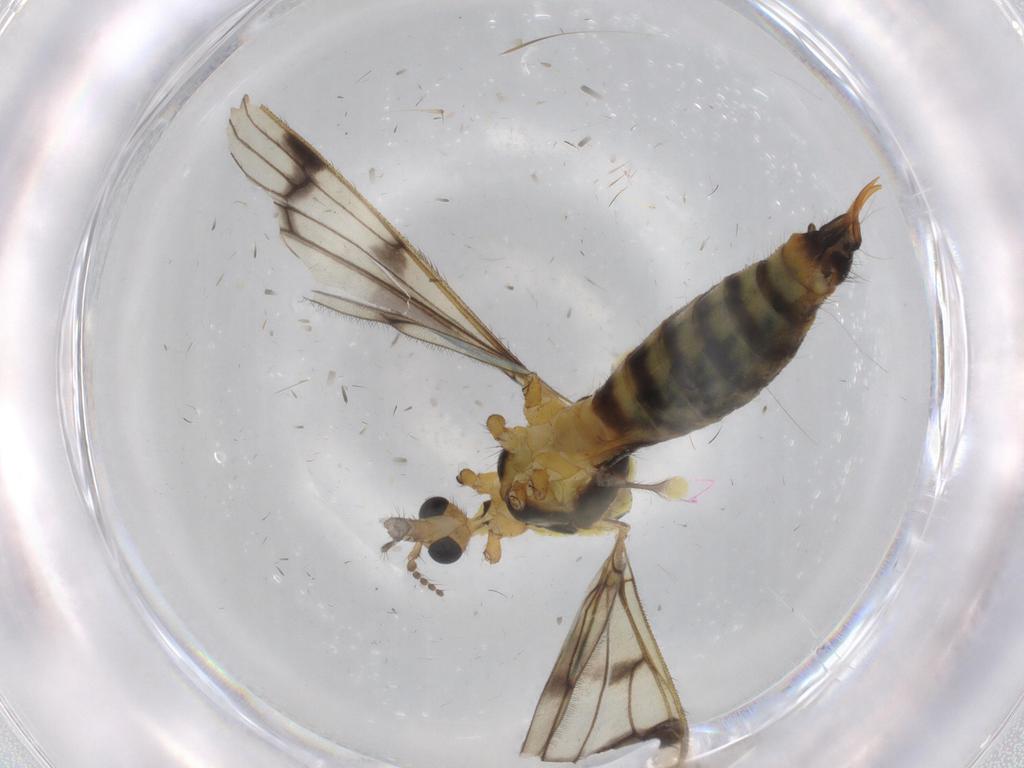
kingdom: Animalia
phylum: Arthropoda
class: Insecta
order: Diptera
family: Limoniidae
